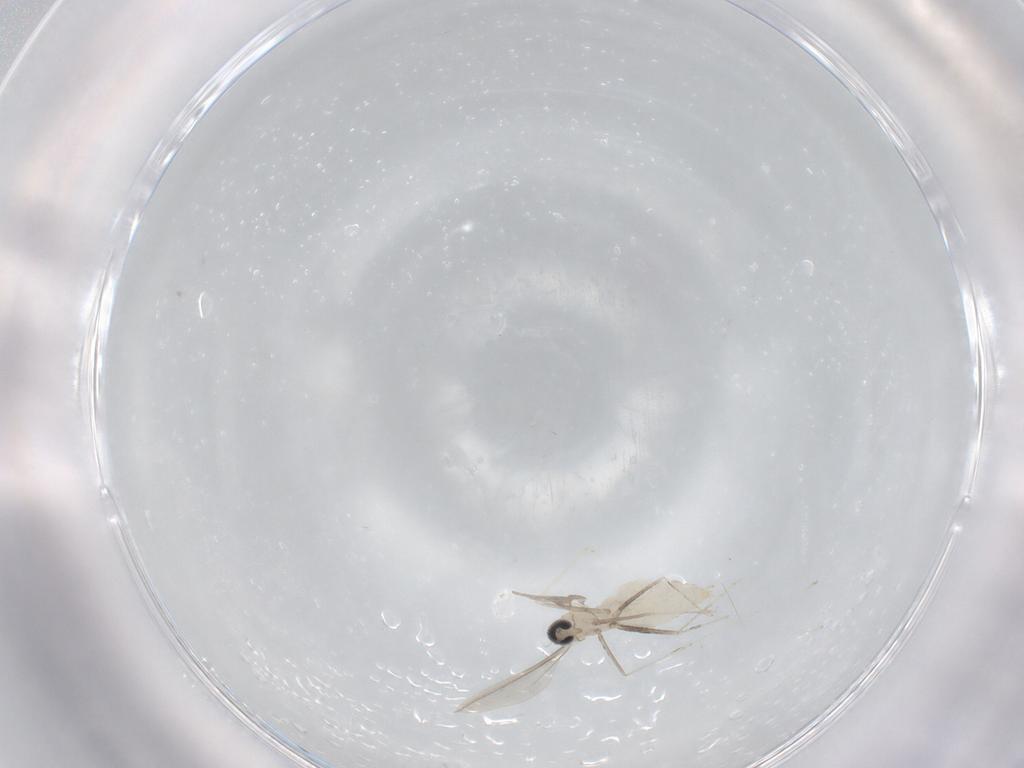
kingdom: Animalia
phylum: Arthropoda
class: Insecta
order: Diptera
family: Cecidomyiidae
